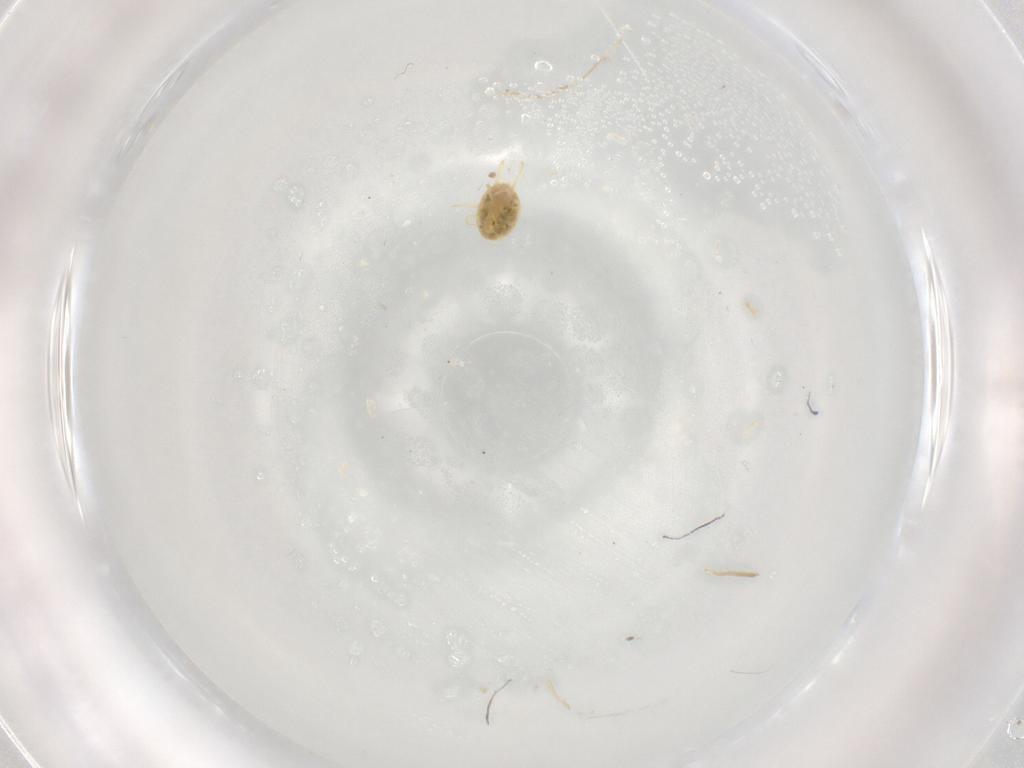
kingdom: Animalia
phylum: Arthropoda
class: Arachnida
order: Trombidiformes
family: Tetranychidae
